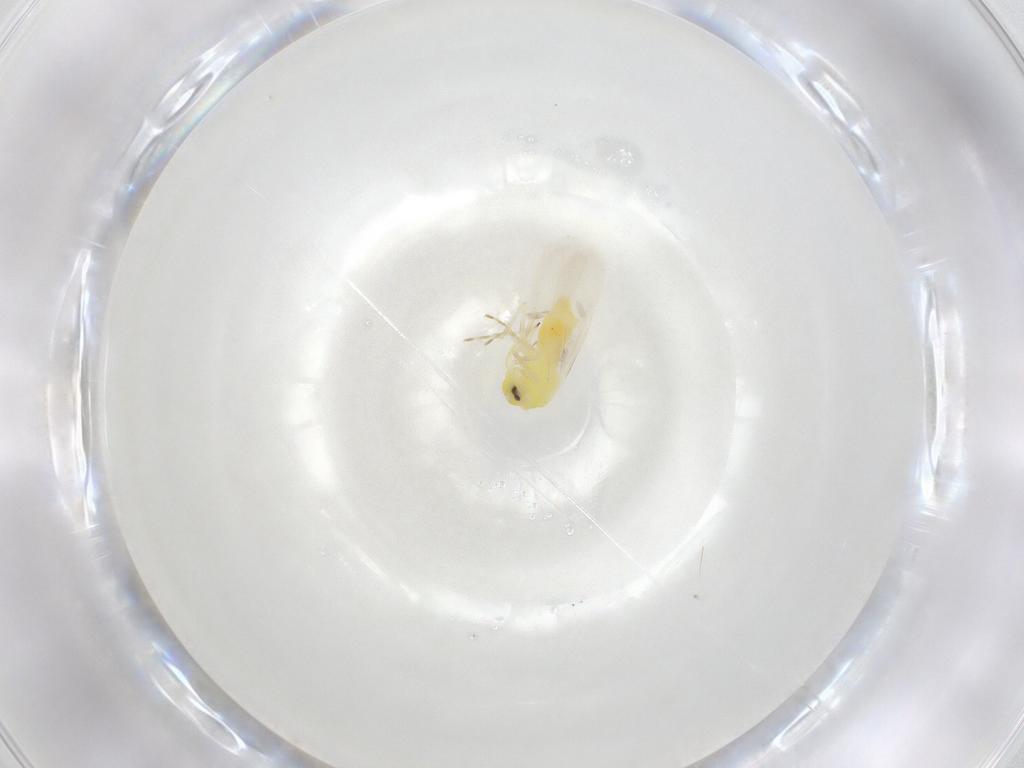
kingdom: Animalia
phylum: Arthropoda
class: Insecta
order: Hemiptera
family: Aleyrodidae
